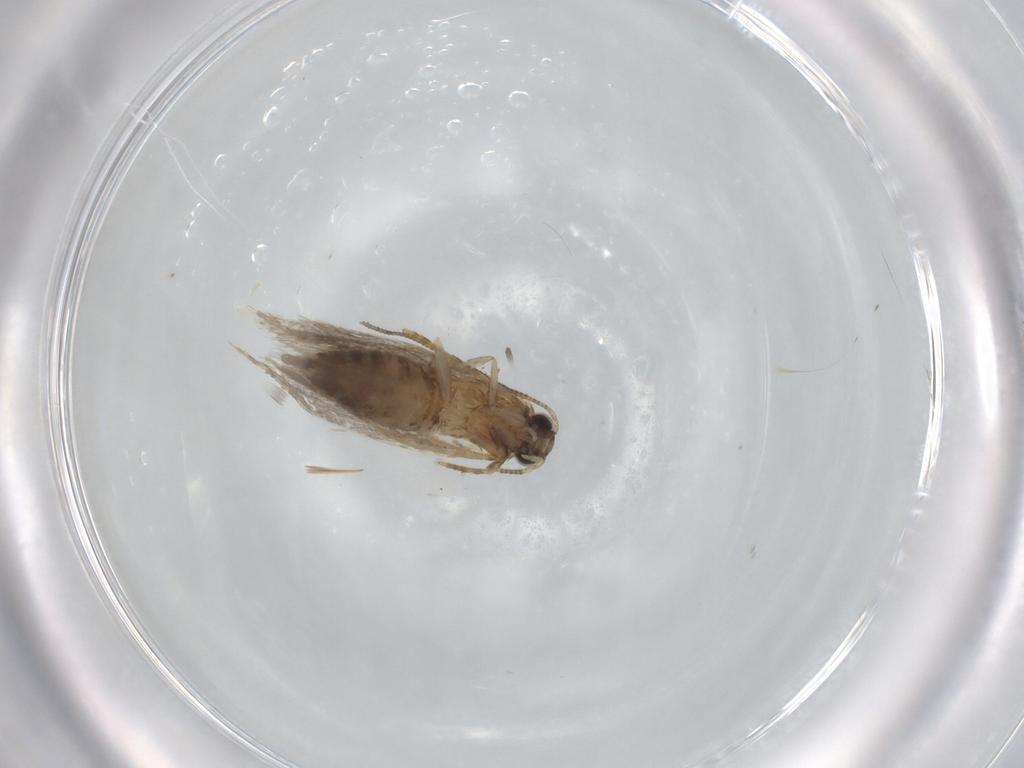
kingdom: Animalia
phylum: Arthropoda
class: Insecta
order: Lepidoptera
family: Tineidae
